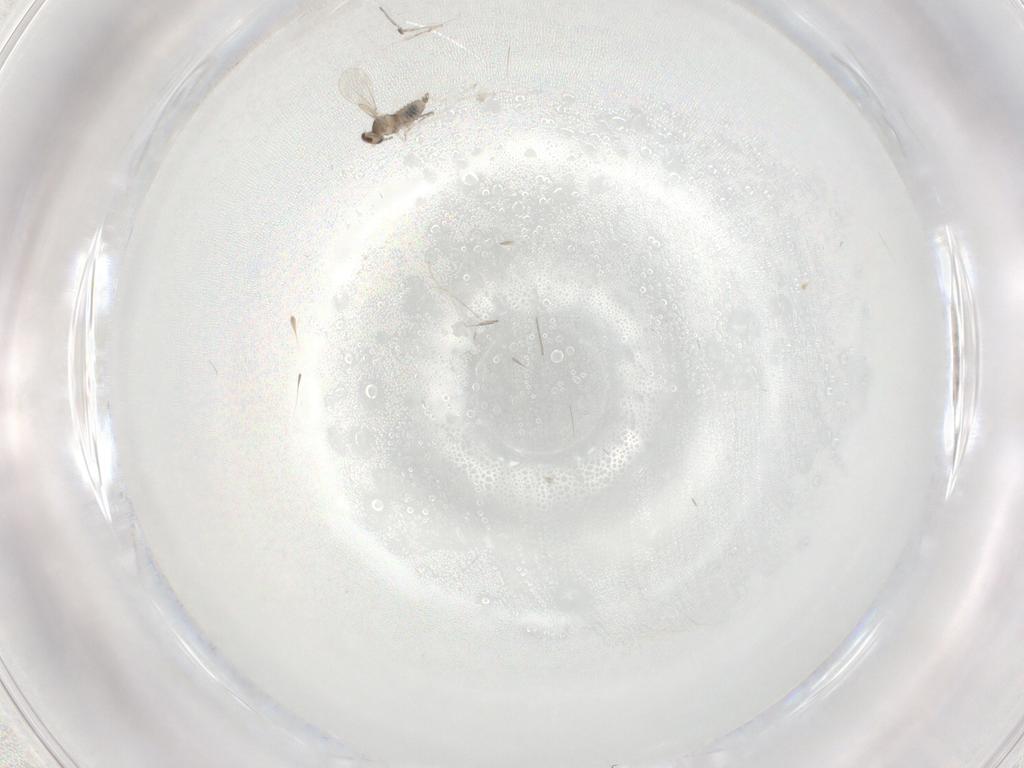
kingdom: Animalia
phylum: Arthropoda
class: Insecta
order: Diptera
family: Cecidomyiidae
